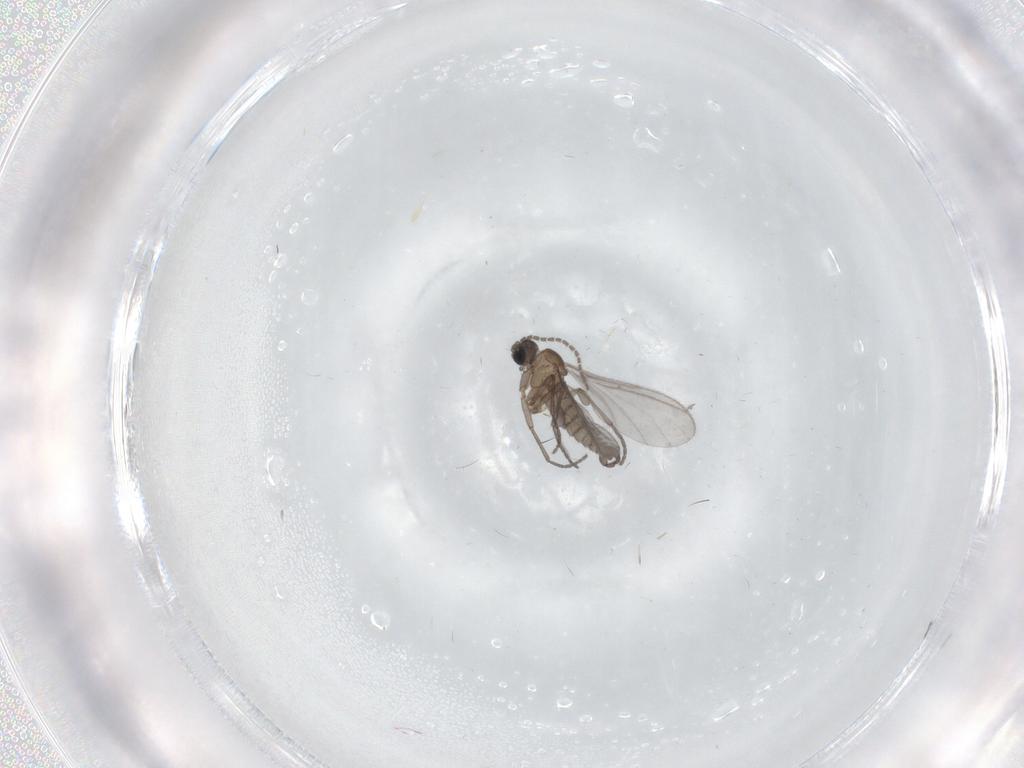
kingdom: Animalia
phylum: Arthropoda
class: Insecta
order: Diptera
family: Sciaridae
